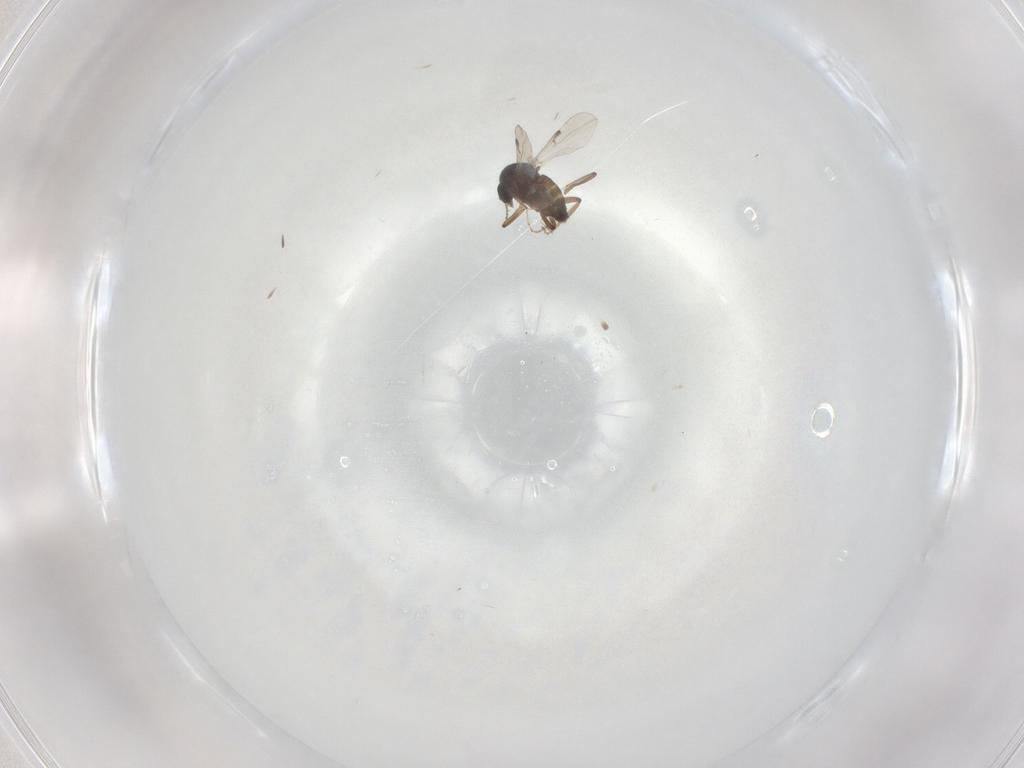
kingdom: Animalia
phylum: Arthropoda
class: Insecta
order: Diptera
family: Ceratopogonidae
